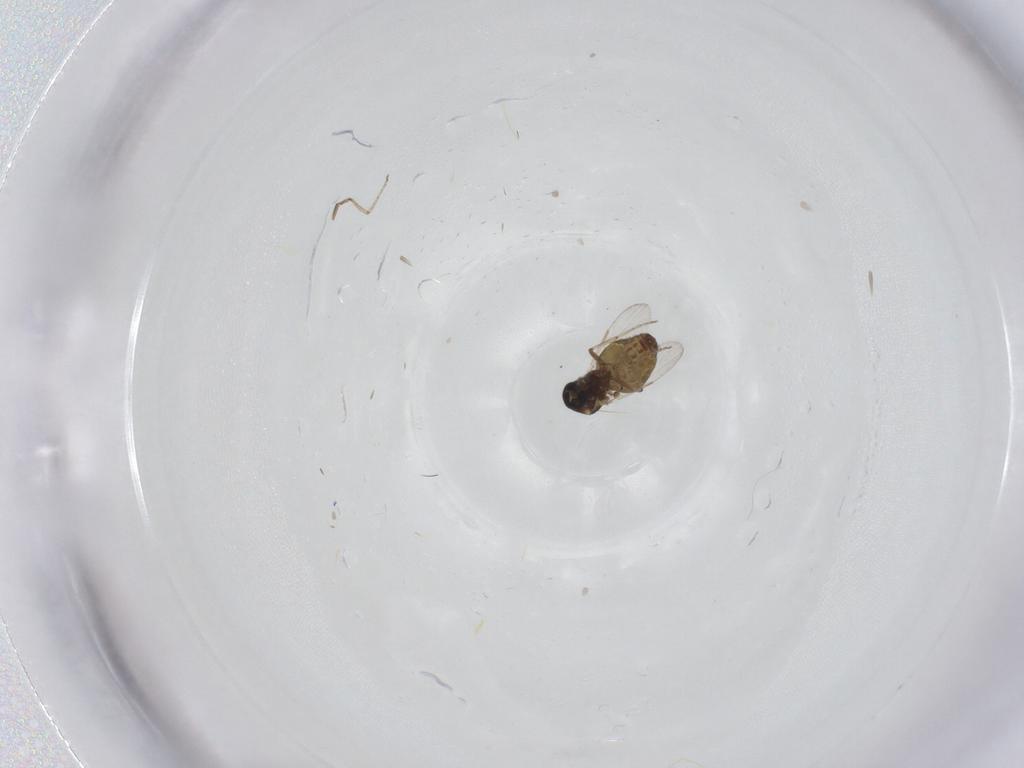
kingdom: Animalia
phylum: Arthropoda
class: Insecta
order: Diptera
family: Ceratopogonidae
